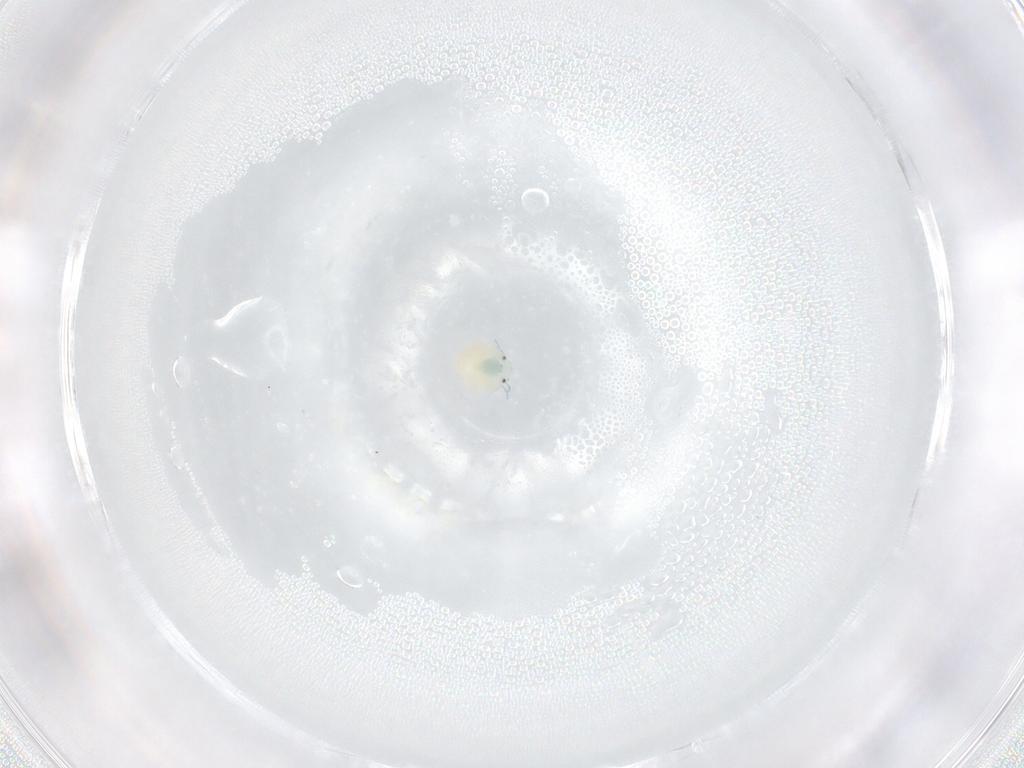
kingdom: Animalia
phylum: Arthropoda
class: Arachnida
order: Trombidiformes
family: Arrenuridae
